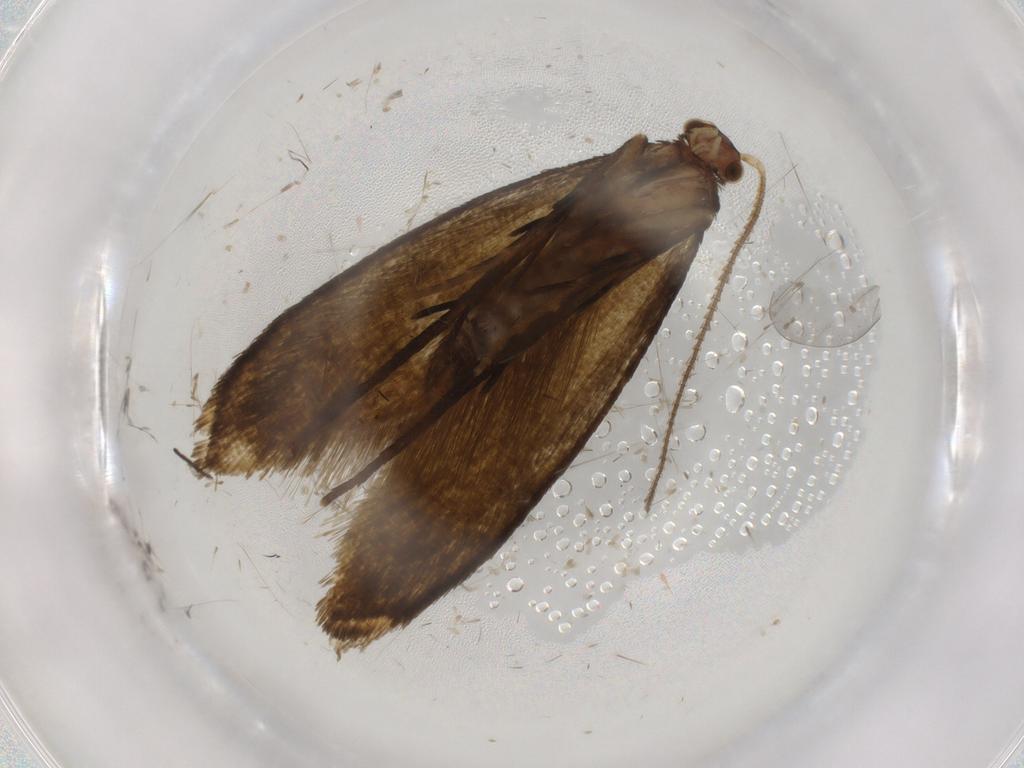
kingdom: Animalia
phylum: Arthropoda
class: Insecta
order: Lepidoptera
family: Tineidae
